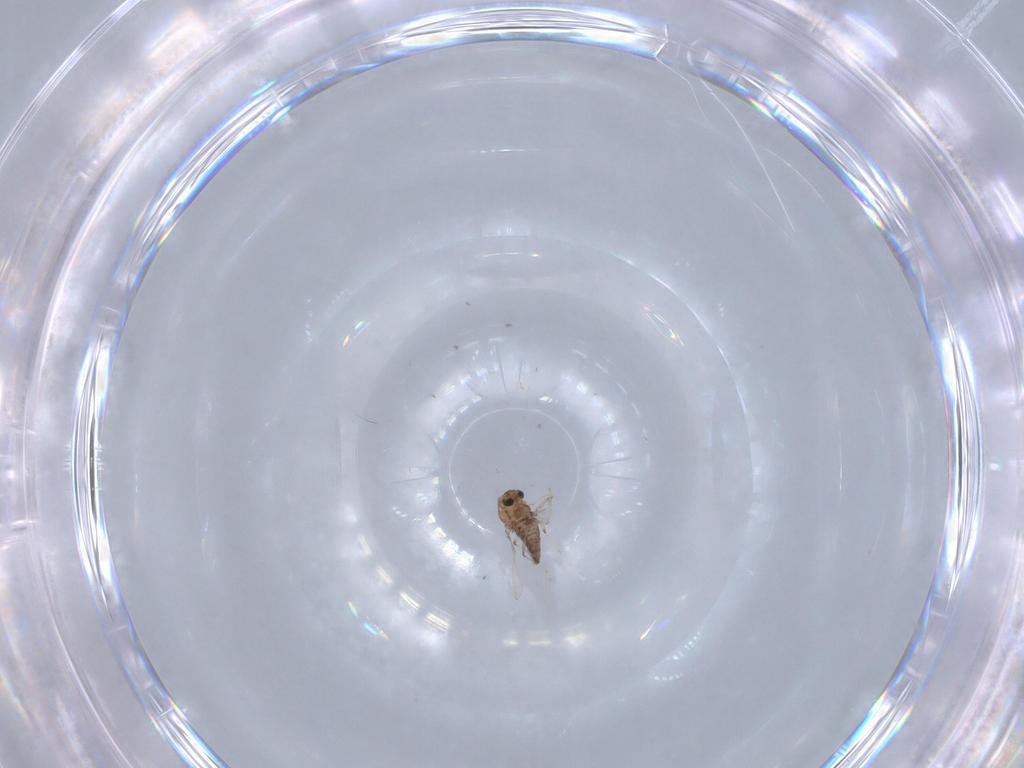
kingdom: Animalia
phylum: Arthropoda
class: Insecta
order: Diptera
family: Chironomidae
